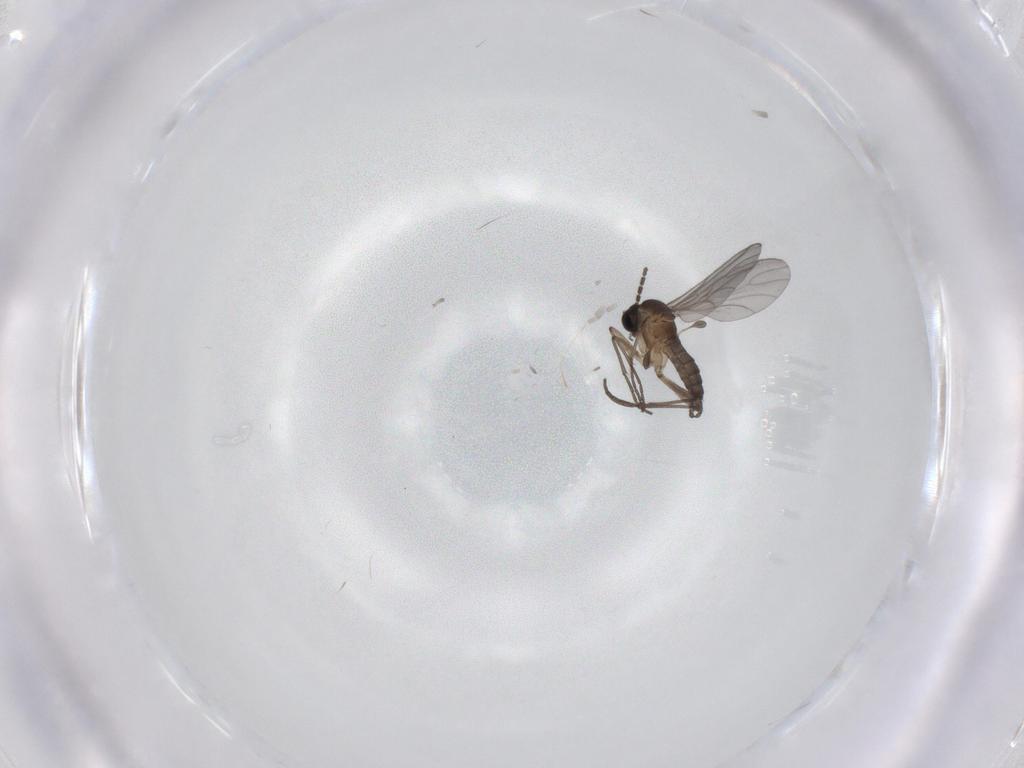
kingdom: Animalia
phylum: Arthropoda
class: Insecta
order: Diptera
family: Sciaridae
